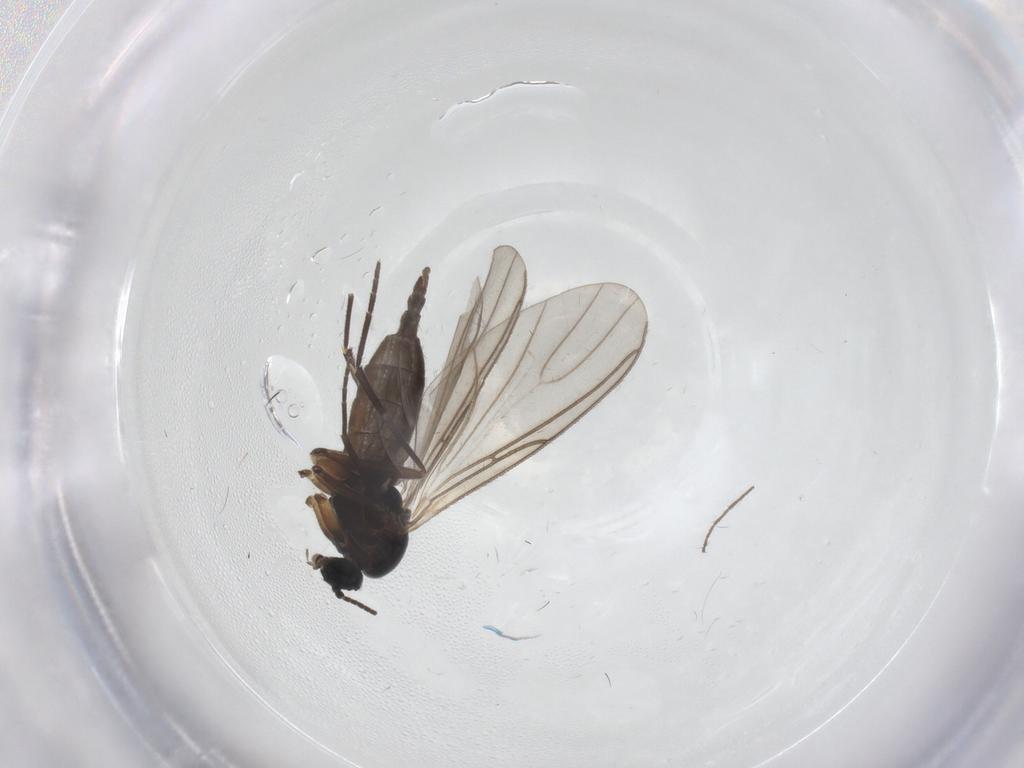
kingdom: Animalia
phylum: Arthropoda
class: Insecta
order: Diptera
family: Sciaridae
